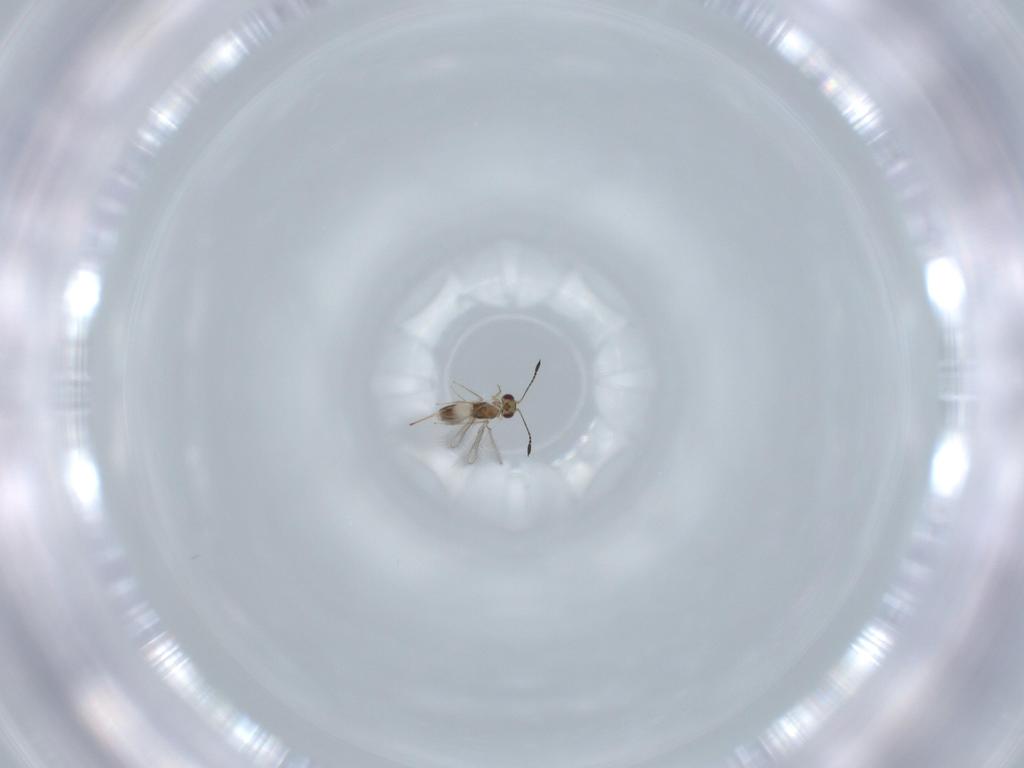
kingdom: Animalia
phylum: Arthropoda
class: Insecta
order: Hymenoptera
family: Mymaridae
